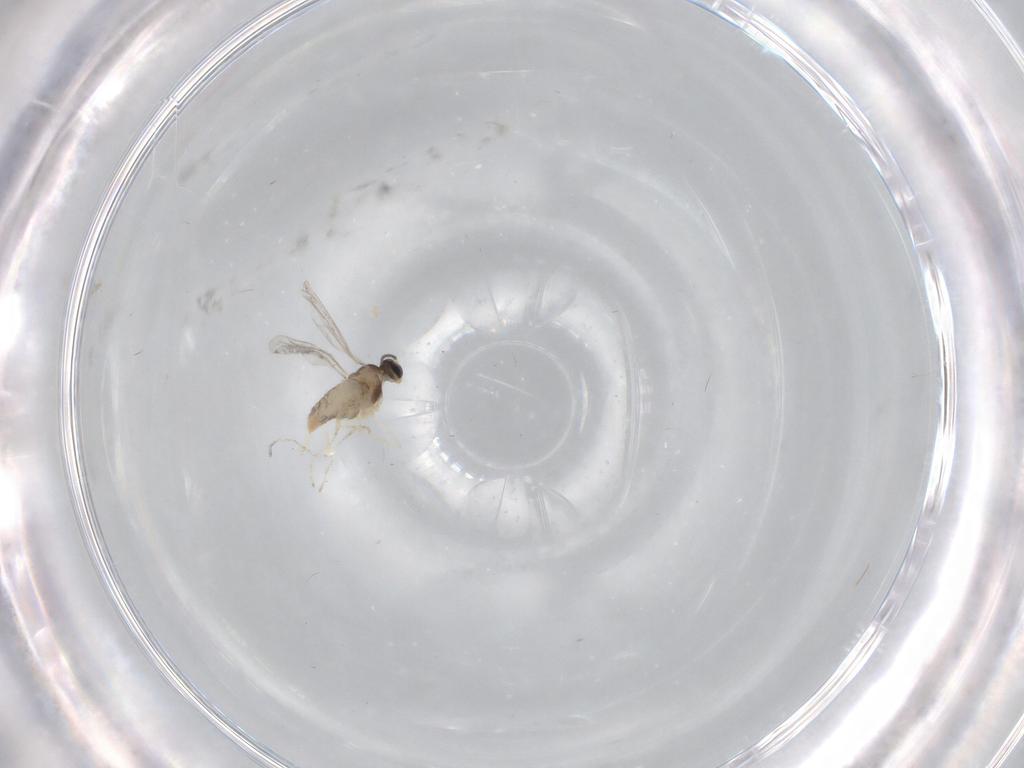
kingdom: Animalia
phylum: Arthropoda
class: Insecta
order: Diptera
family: Cecidomyiidae
